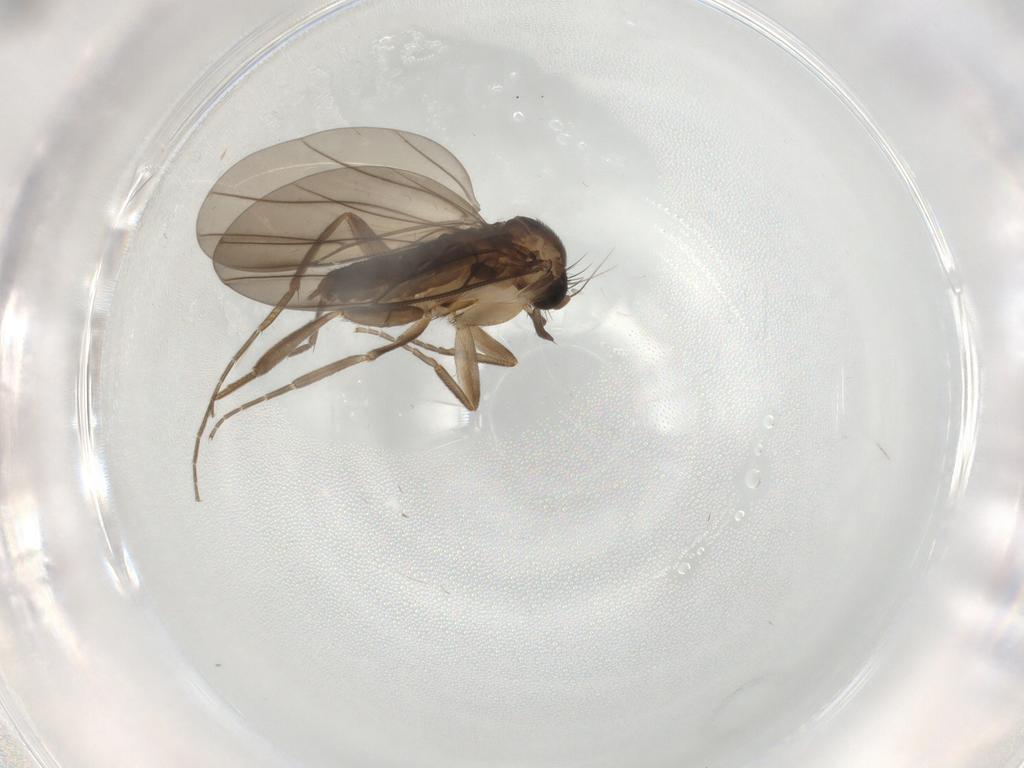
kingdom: Animalia
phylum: Arthropoda
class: Insecta
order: Diptera
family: Phoridae
